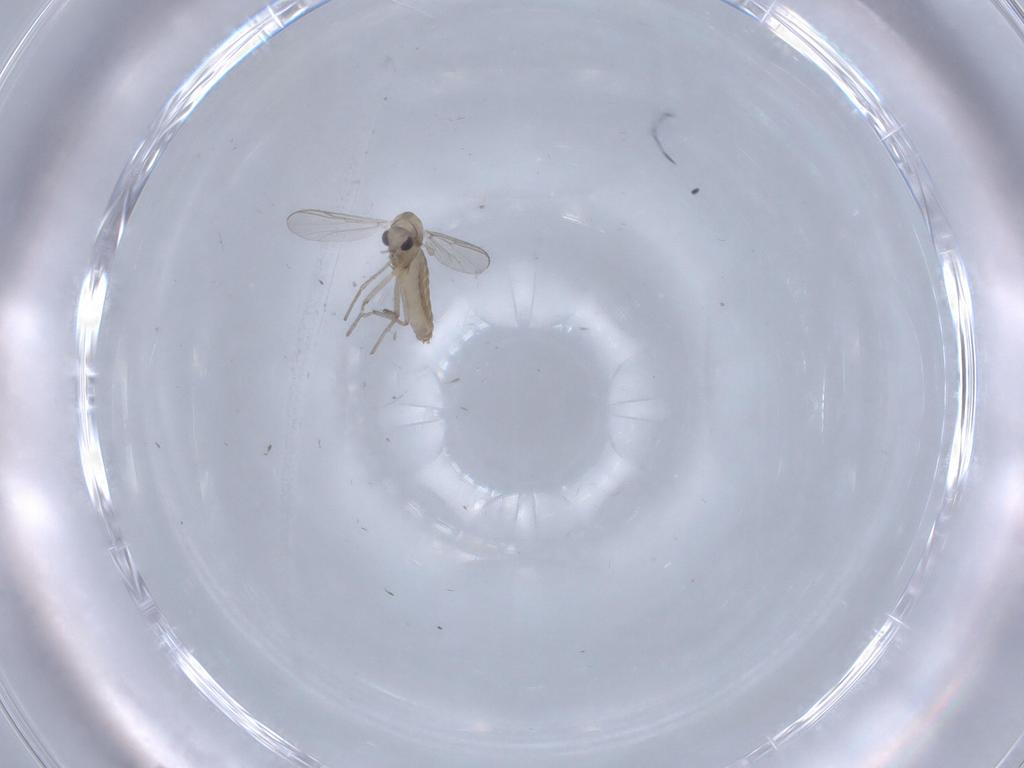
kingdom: Animalia
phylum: Arthropoda
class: Insecta
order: Diptera
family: Chironomidae
